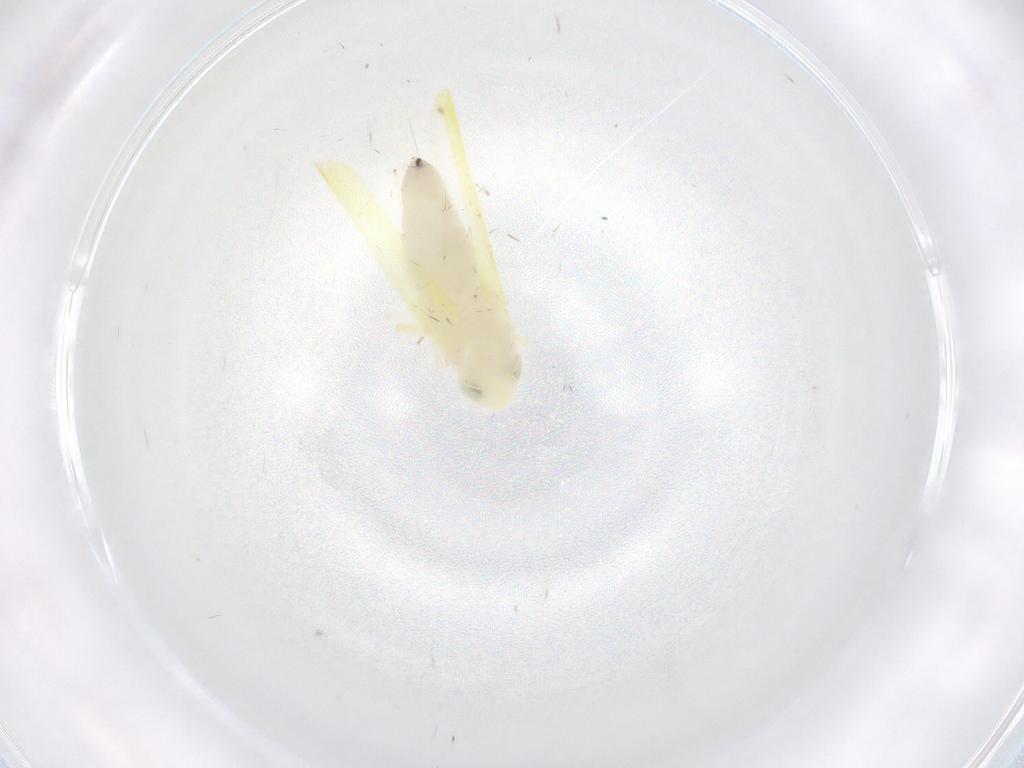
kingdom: Animalia
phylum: Arthropoda
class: Insecta
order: Hemiptera
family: Cicadellidae
